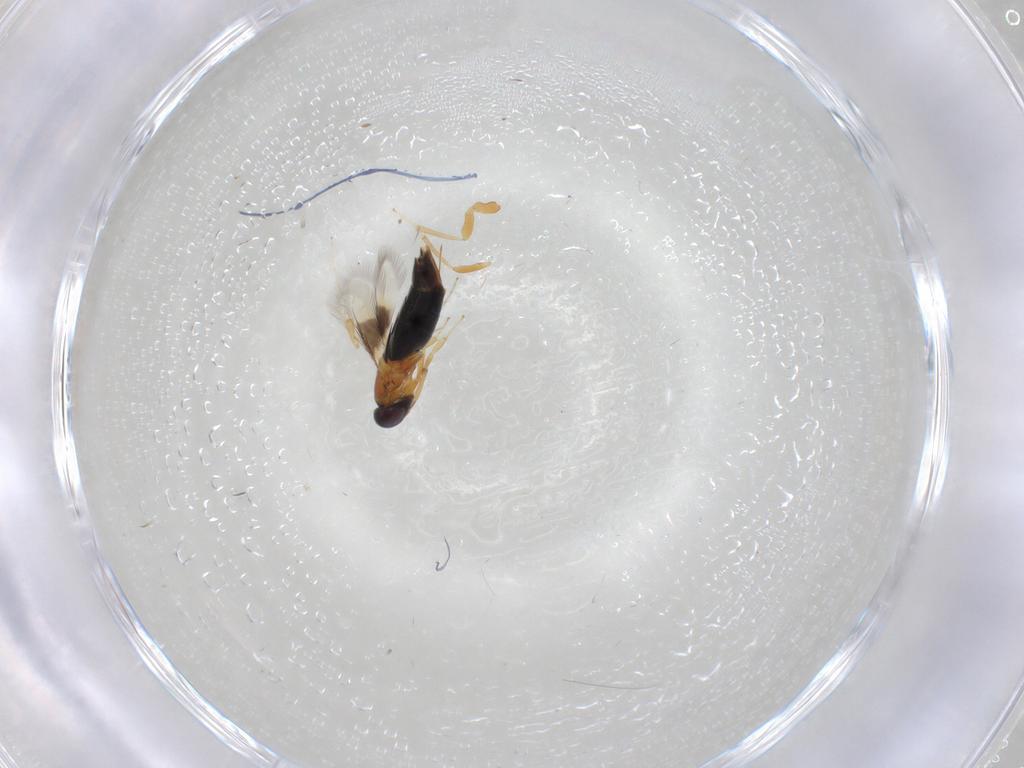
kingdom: Animalia
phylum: Arthropoda
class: Insecta
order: Hymenoptera
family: Signiphoridae
